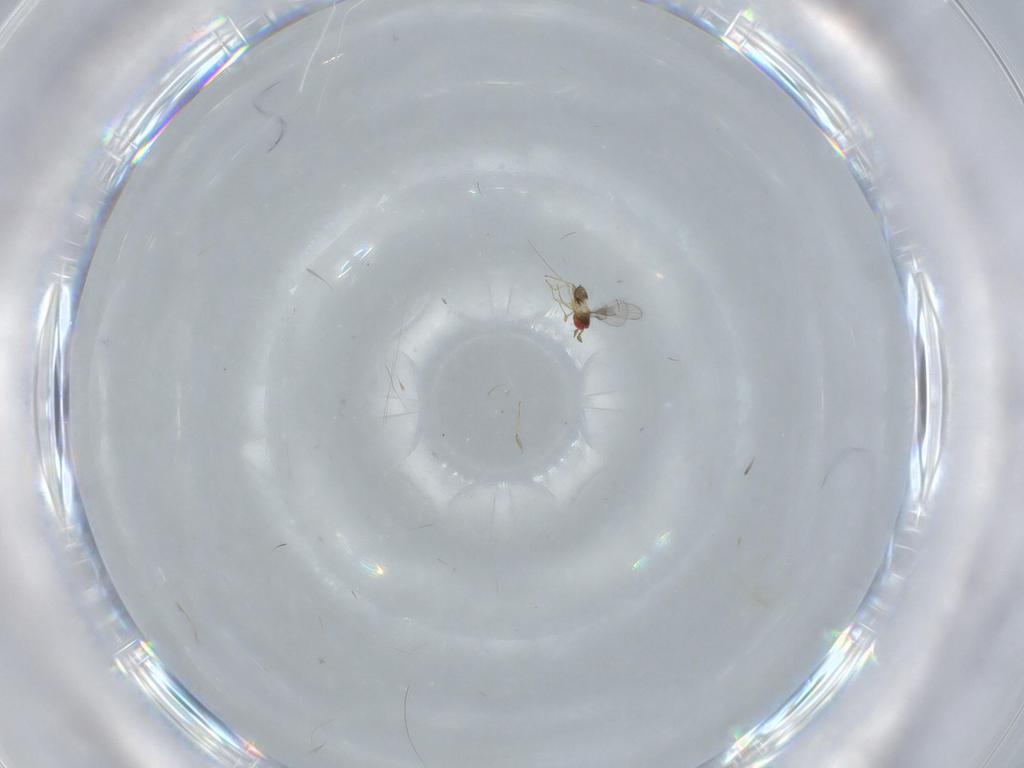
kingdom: Animalia
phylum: Arthropoda
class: Insecta
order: Hymenoptera
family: Trichogrammatidae
